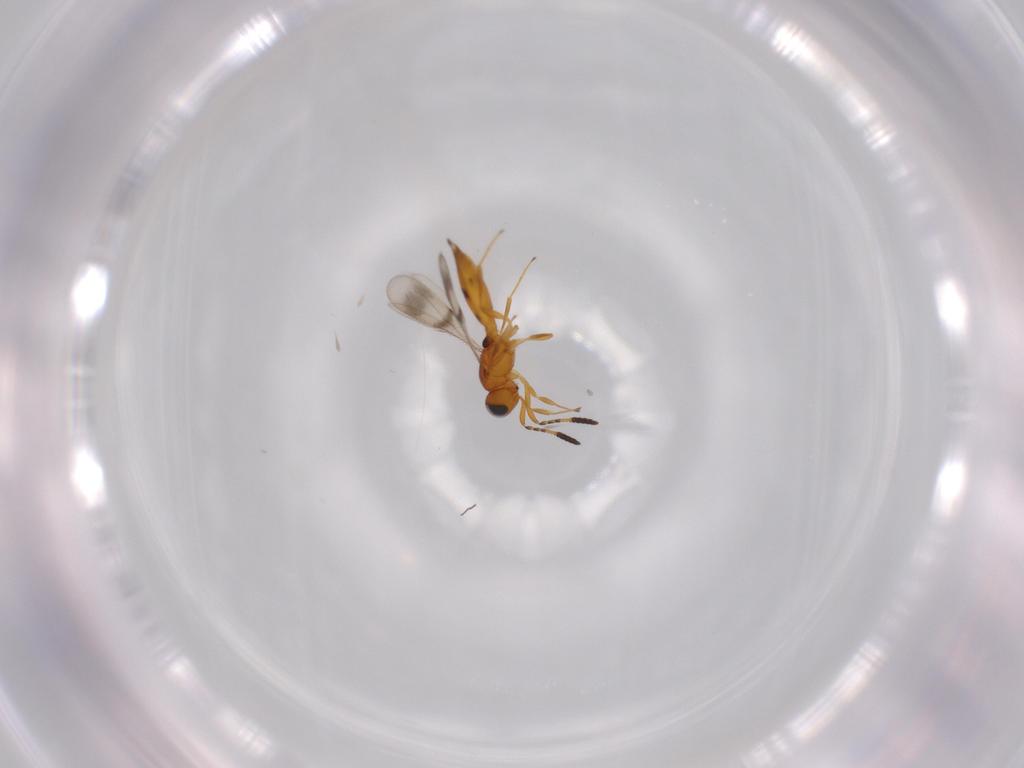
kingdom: Animalia
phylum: Arthropoda
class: Insecta
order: Hymenoptera
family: Scelionidae
